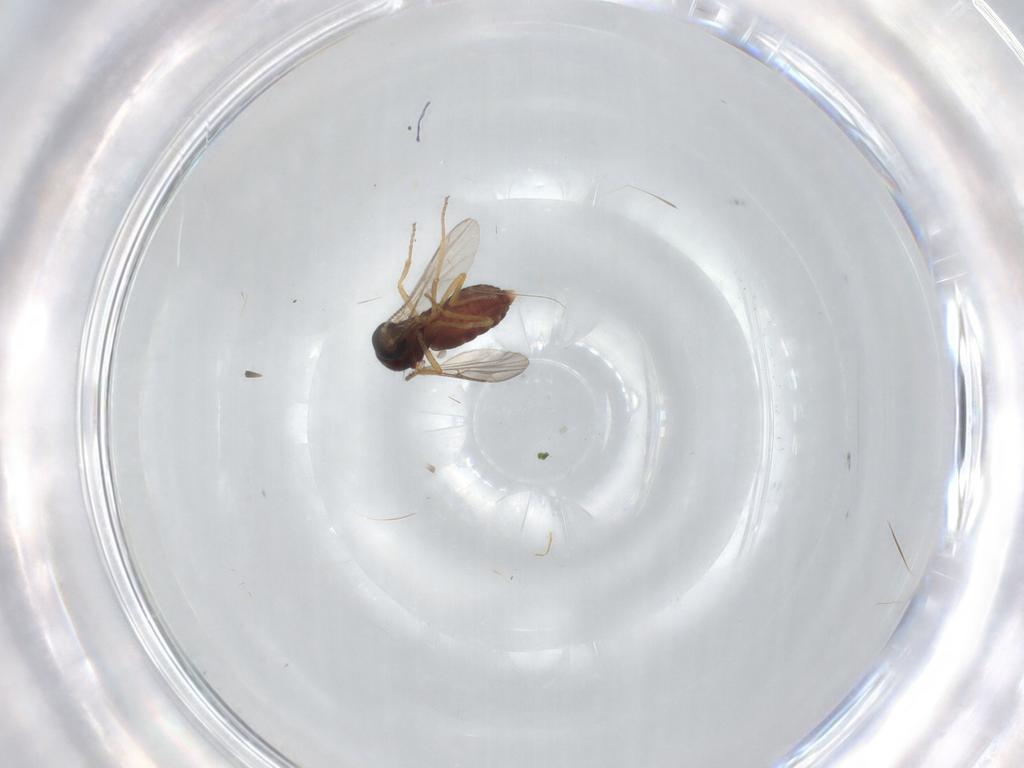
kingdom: Animalia
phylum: Arthropoda
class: Insecta
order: Diptera
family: Ceratopogonidae
